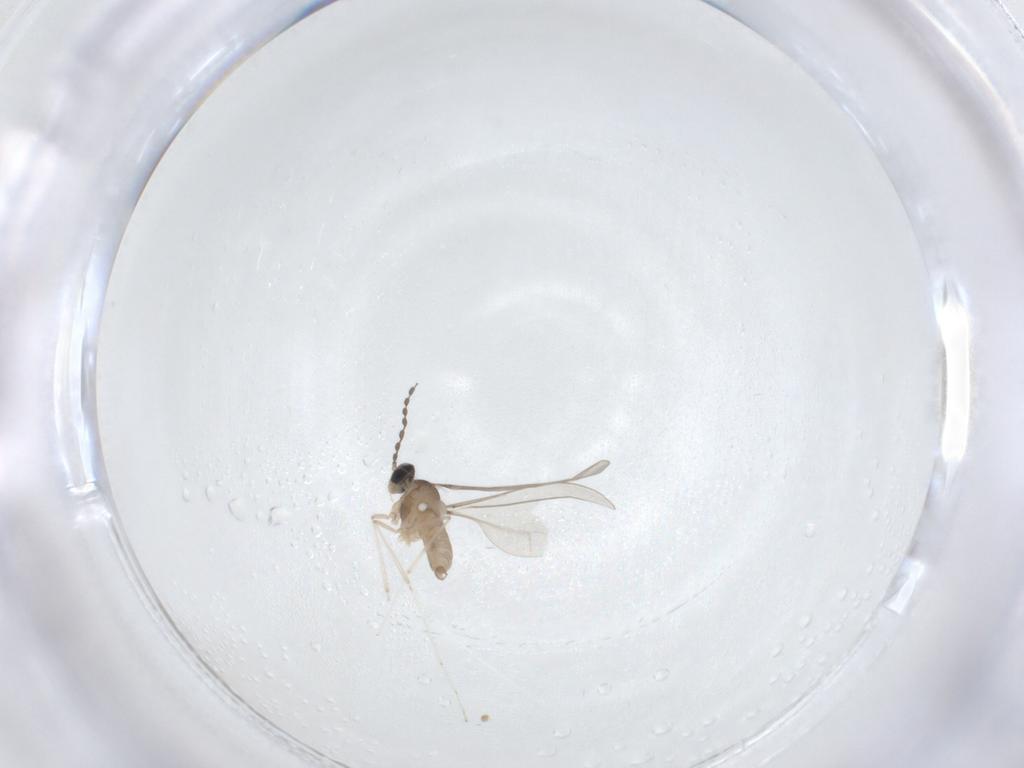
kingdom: Animalia
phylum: Arthropoda
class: Insecta
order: Diptera
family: Cecidomyiidae
